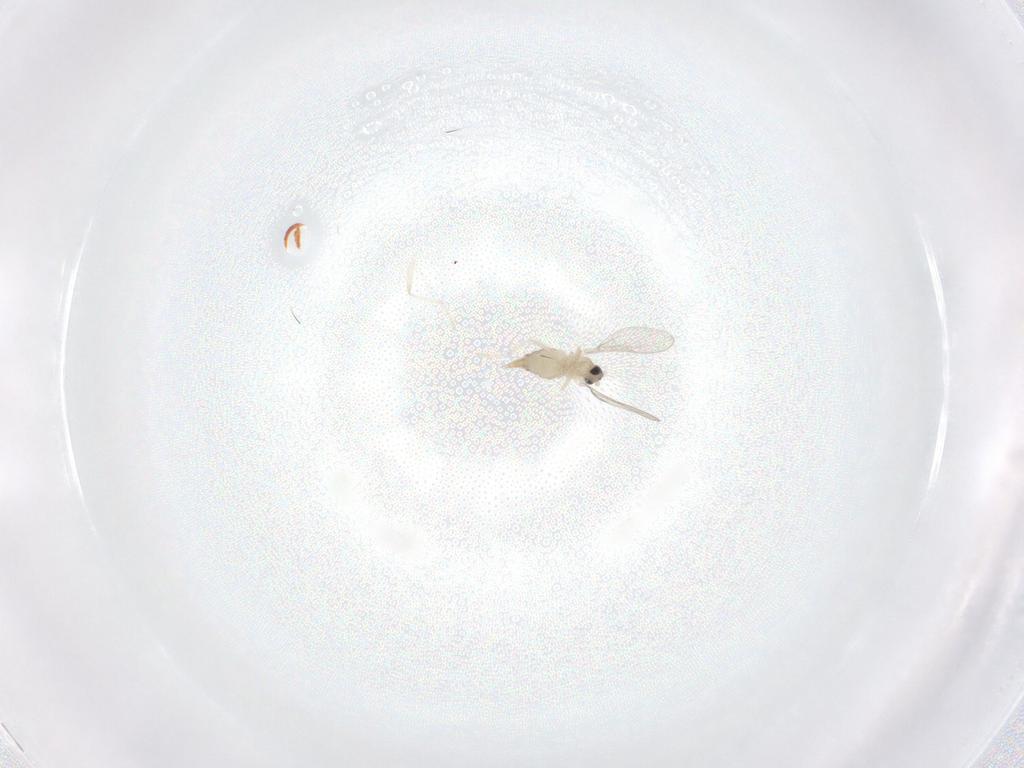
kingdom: Animalia
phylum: Arthropoda
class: Insecta
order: Diptera
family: Cecidomyiidae
